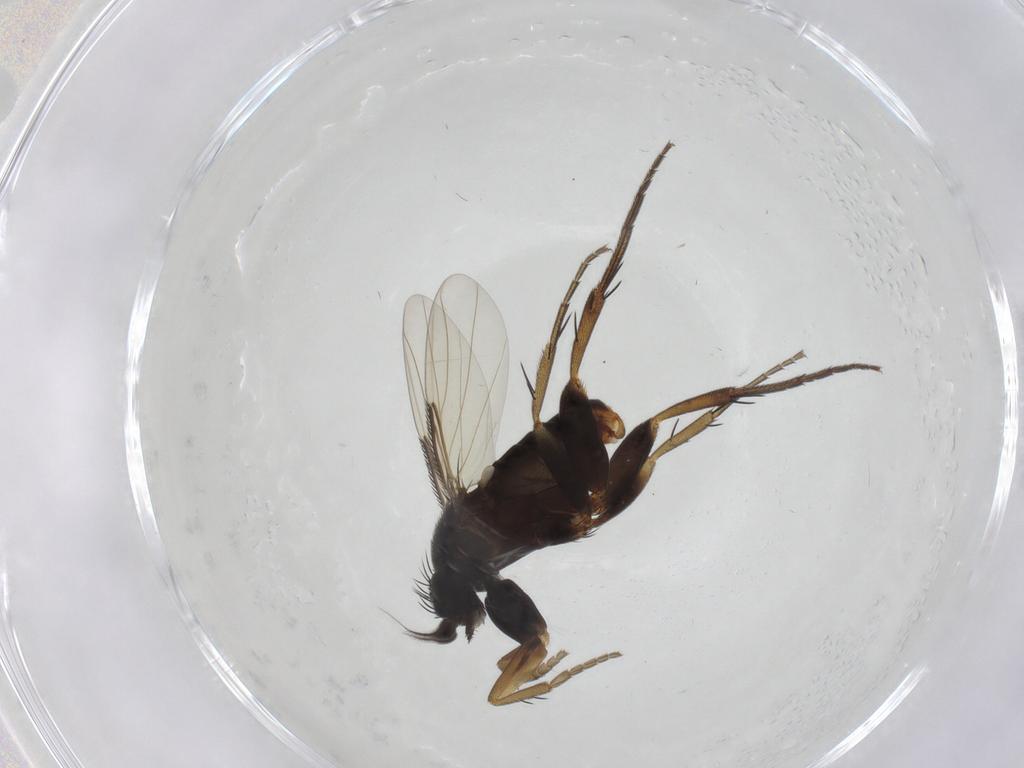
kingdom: Animalia
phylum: Arthropoda
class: Insecta
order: Diptera
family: Phoridae
